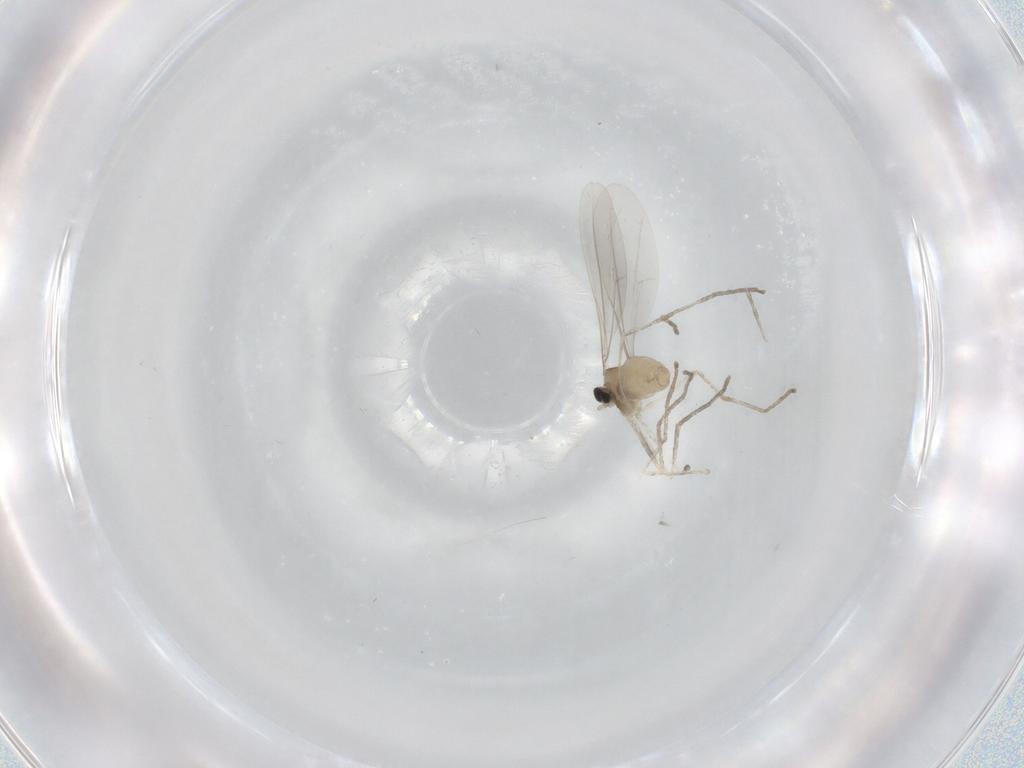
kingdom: Animalia
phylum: Arthropoda
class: Insecta
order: Diptera
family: Cecidomyiidae
